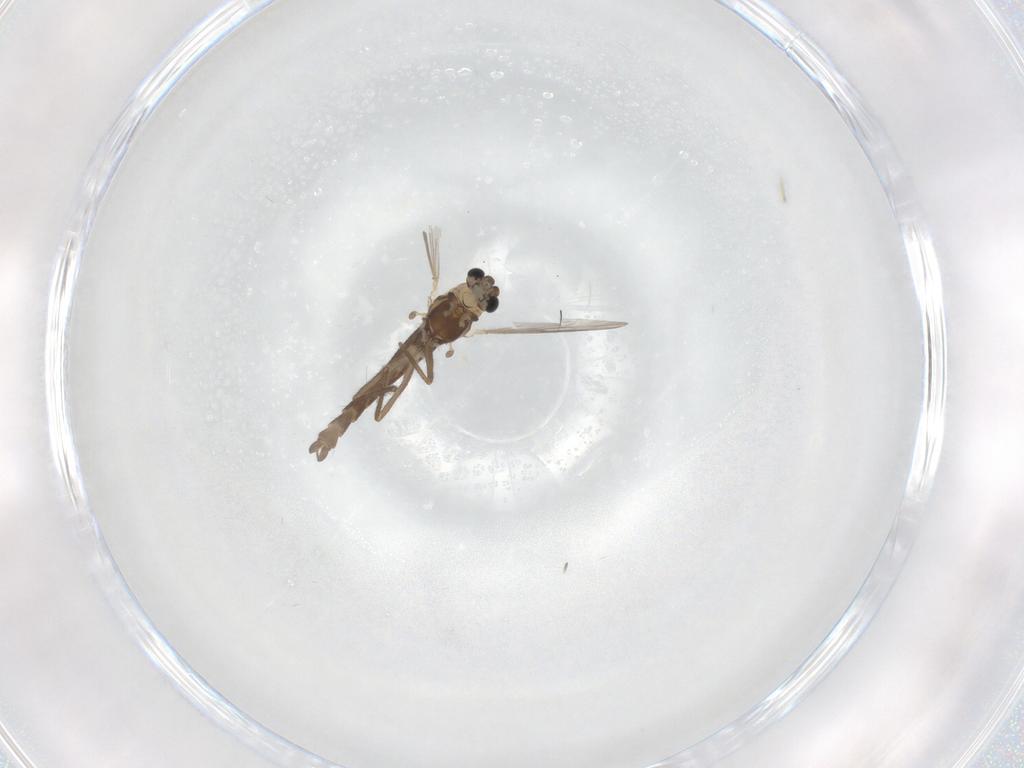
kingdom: Animalia
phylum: Arthropoda
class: Insecta
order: Diptera
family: Chironomidae
